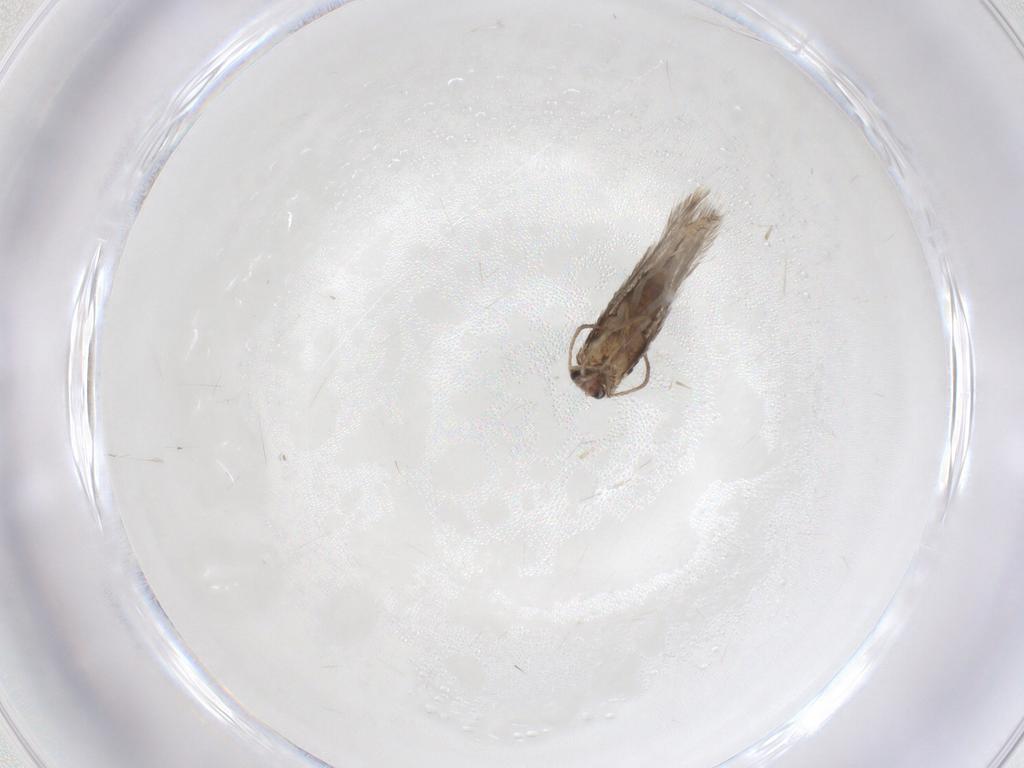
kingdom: Animalia
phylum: Arthropoda
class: Insecta
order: Lepidoptera
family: Nepticulidae
